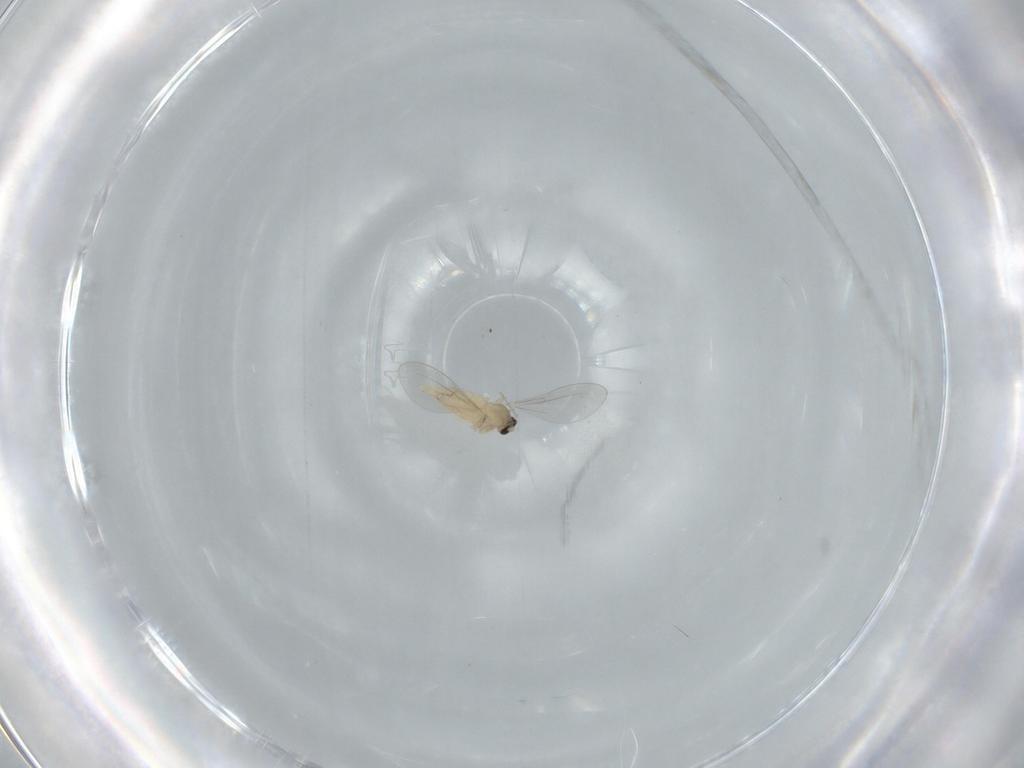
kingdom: Animalia
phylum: Arthropoda
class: Insecta
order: Diptera
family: Cecidomyiidae
